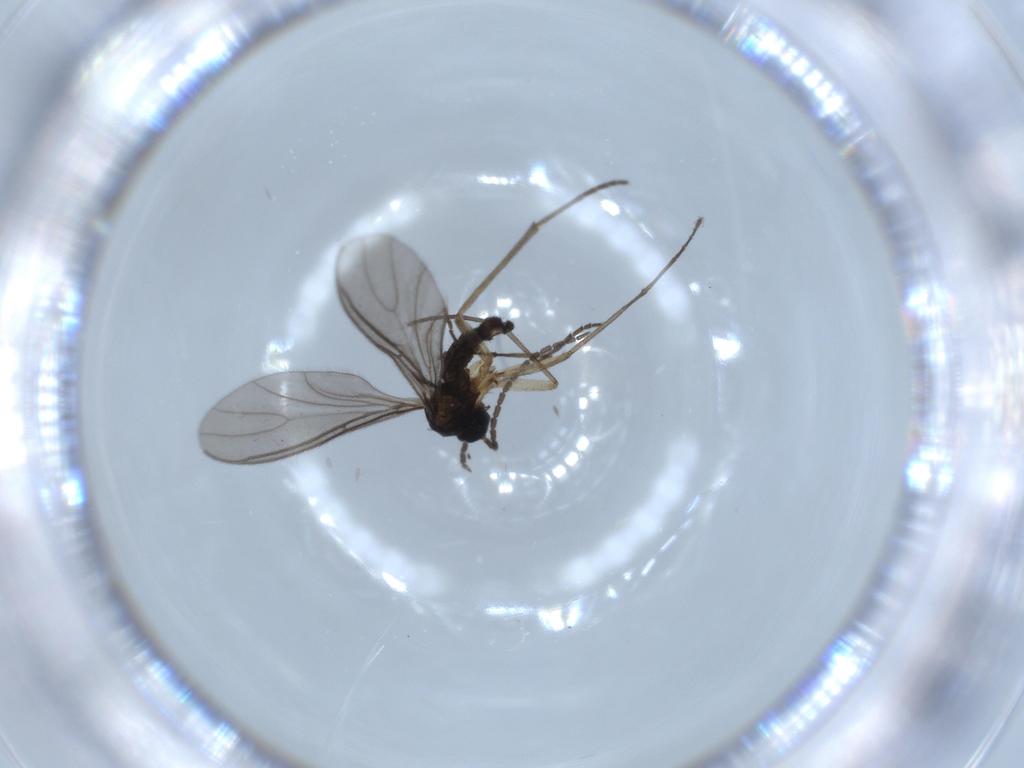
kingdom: Animalia
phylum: Arthropoda
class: Insecta
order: Diptera
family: Sciaridae
